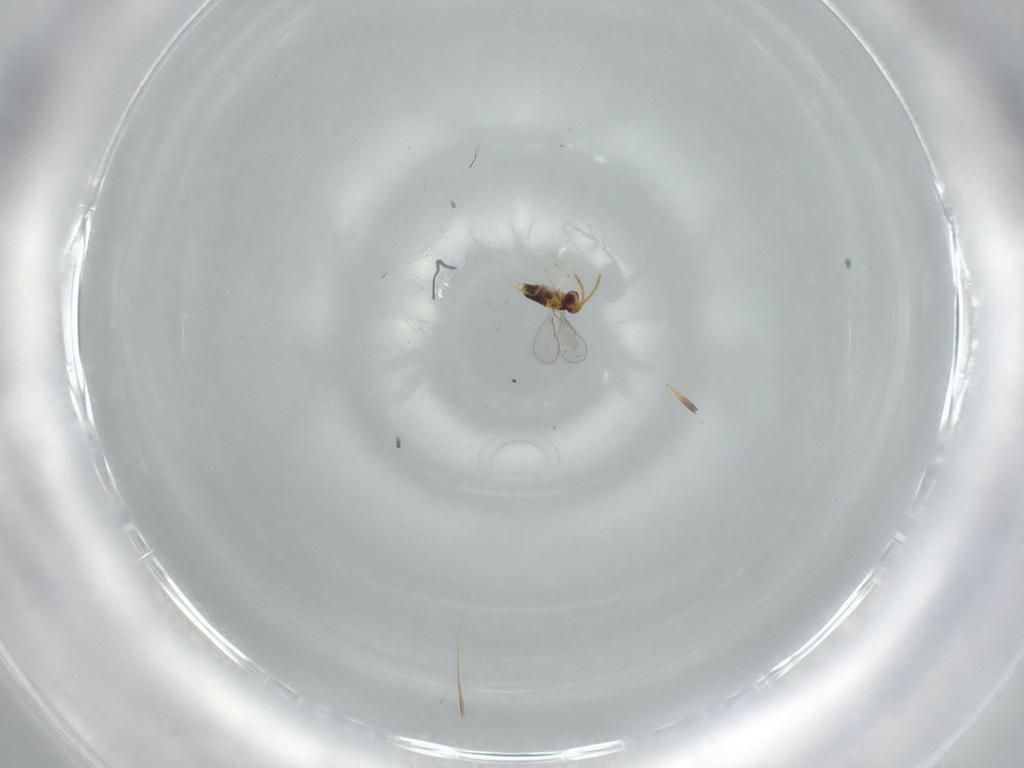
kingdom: Animalia
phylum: Arthropoda
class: Insecta
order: Hymenoptera
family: Aphelinidae
